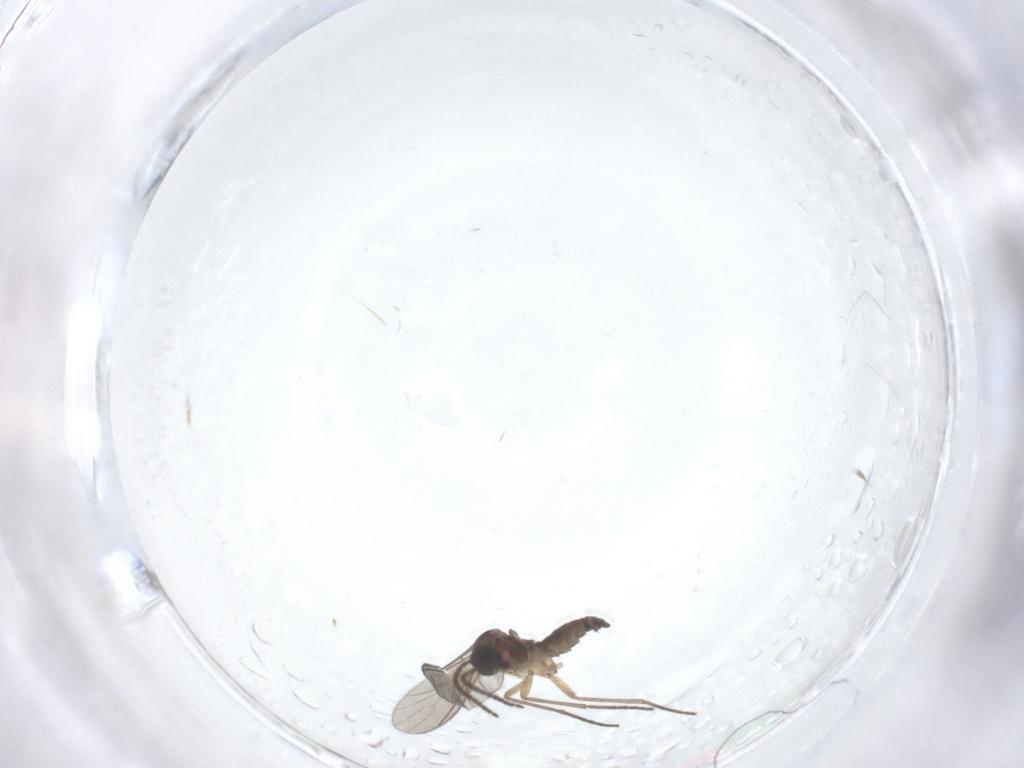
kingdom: Animalia
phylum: Arthropoda
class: Insecta
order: Diptera
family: Sciaridae
